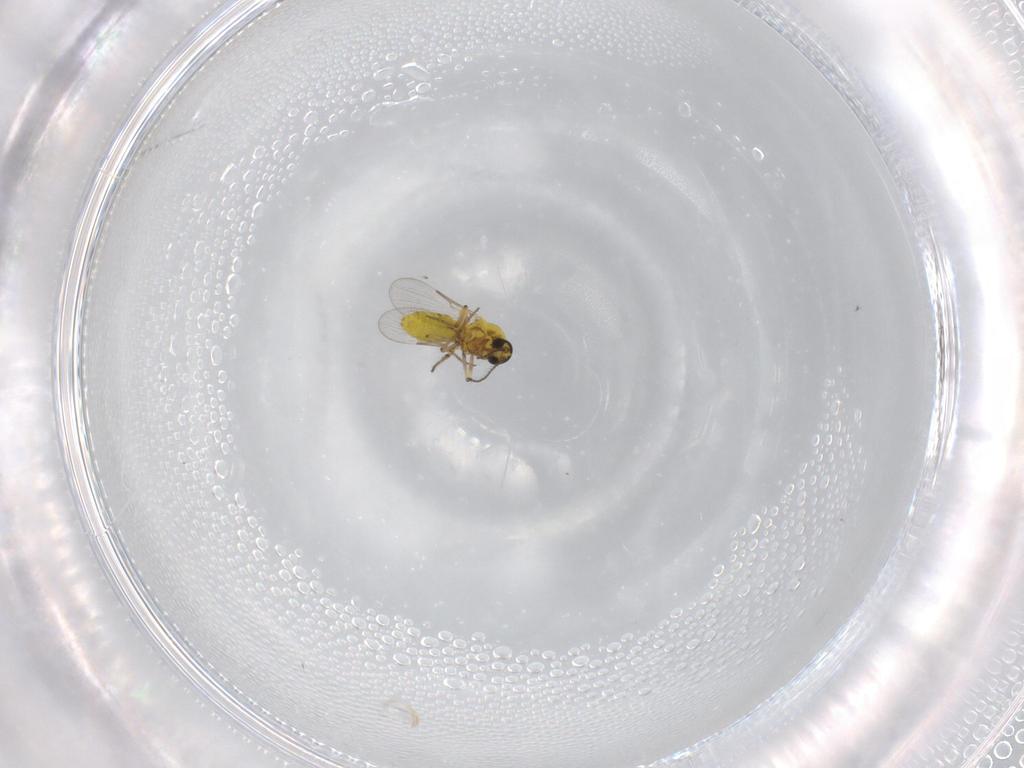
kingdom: Animalia
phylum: Arthropoda
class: Insecta
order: Diptera
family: Ceratopogonidae
